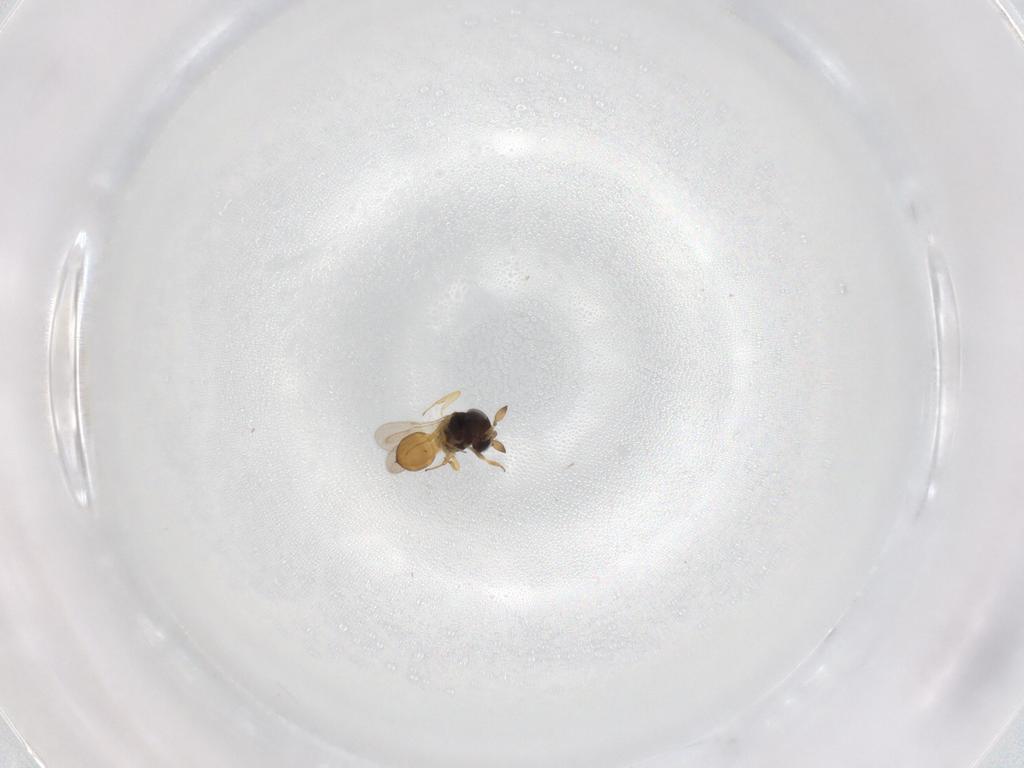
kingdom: Animalia
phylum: Arthropoda
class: Insecta
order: Hymenoptera
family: Scelionidae
